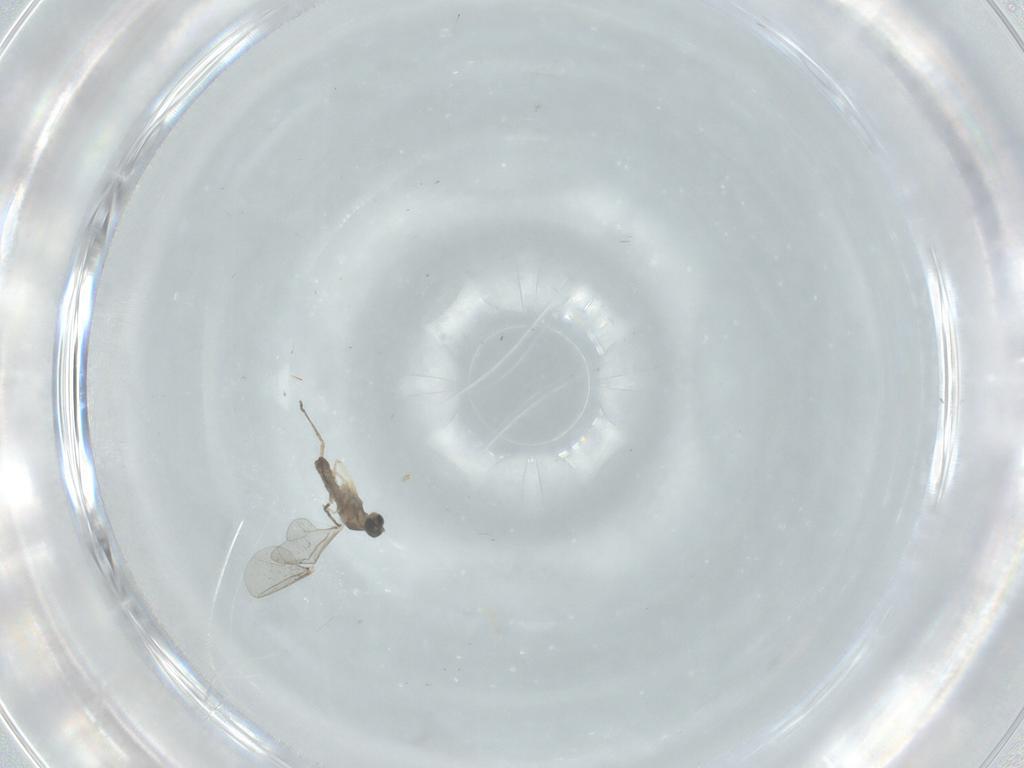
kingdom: Animalia
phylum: Arthropoda
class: Insecta
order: Diptera
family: Cecidomyiidae
